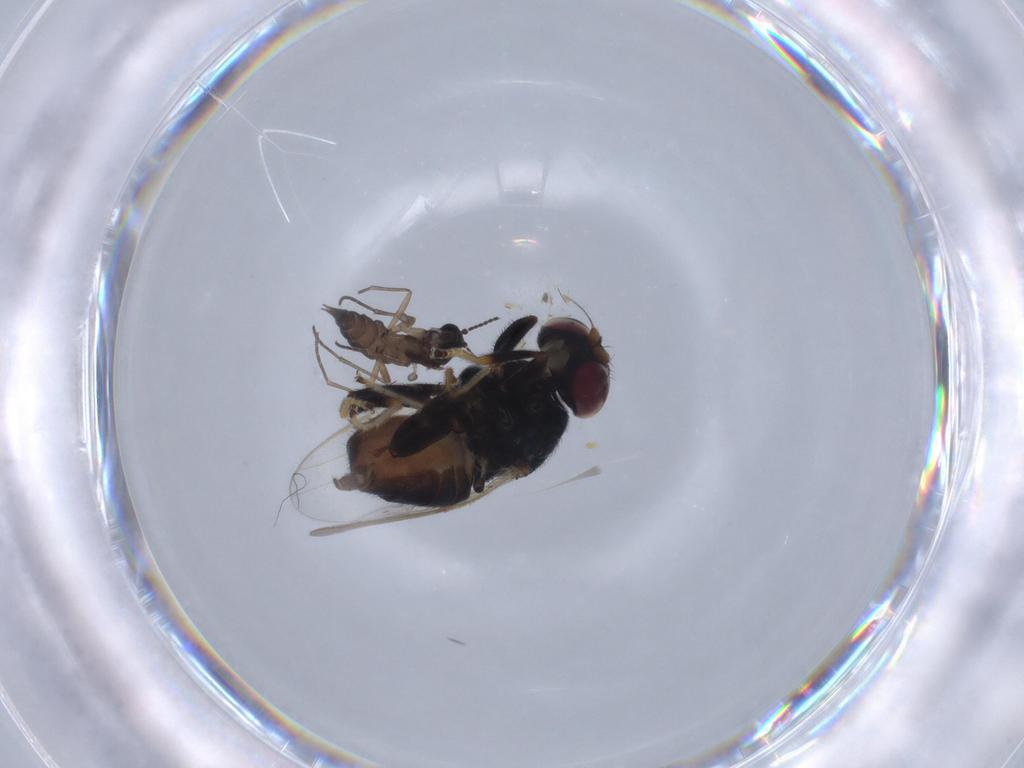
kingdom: Animalia
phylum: Arthropoda
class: Insecta
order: Diptera
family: Chloropidae
